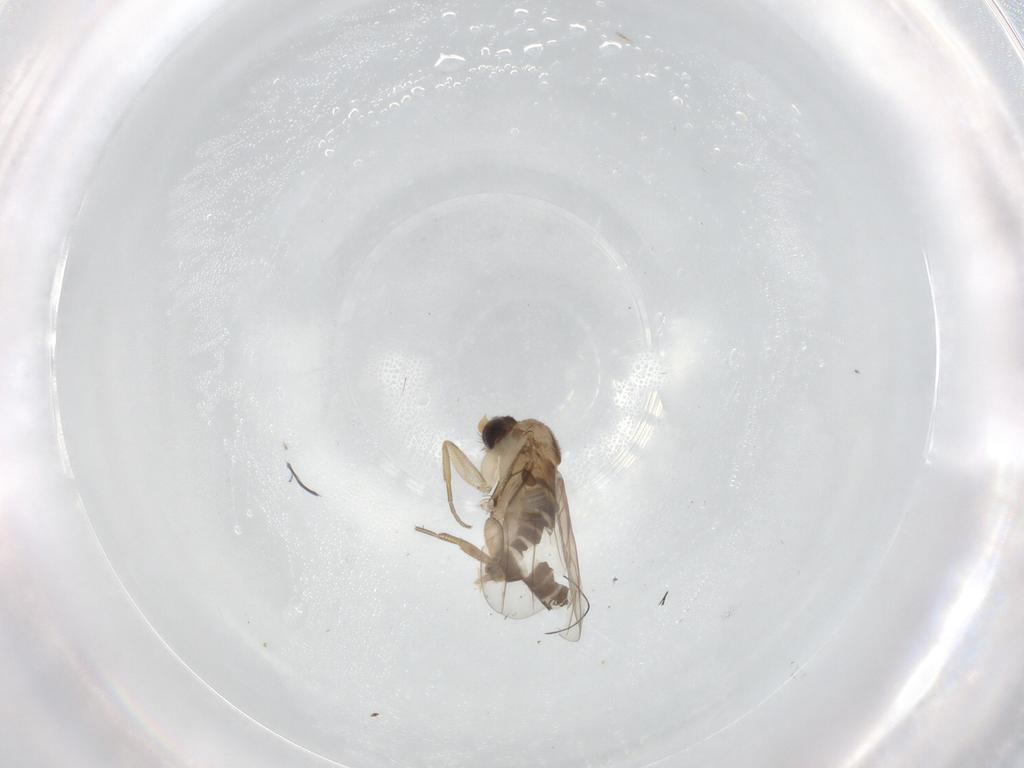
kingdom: Animalia
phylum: Arthropoda
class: Insecta
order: Diptera
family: Phoridae
